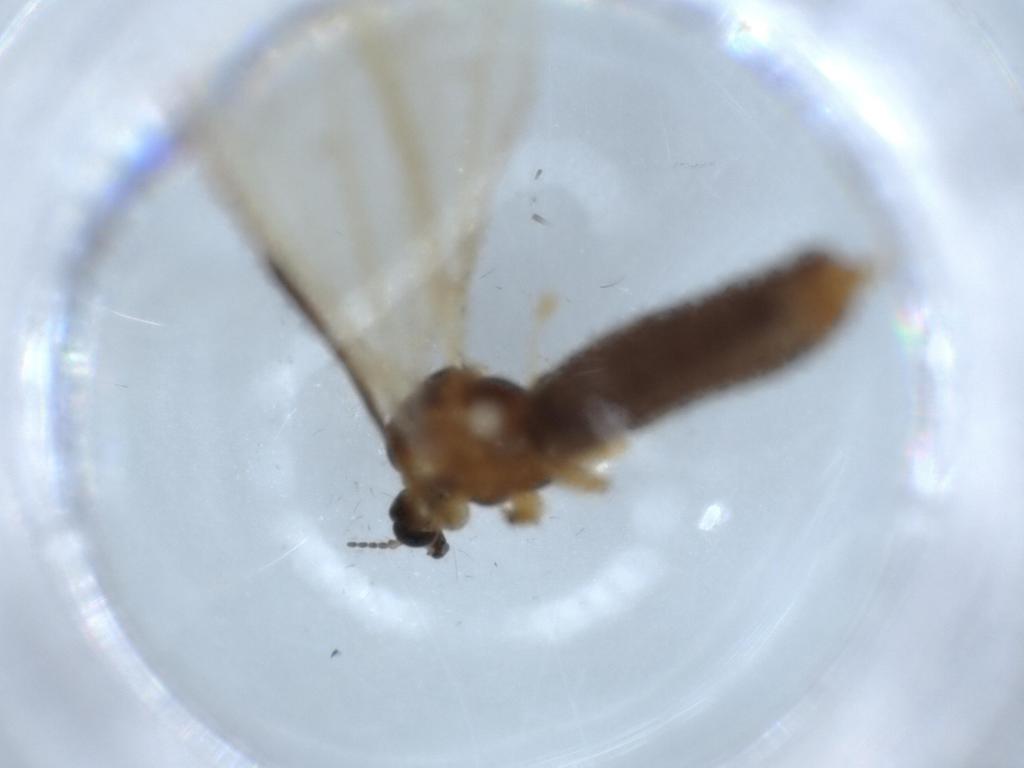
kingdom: Animalia
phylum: Arthropoda
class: Insecta
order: Diptera
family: Limoniidae
